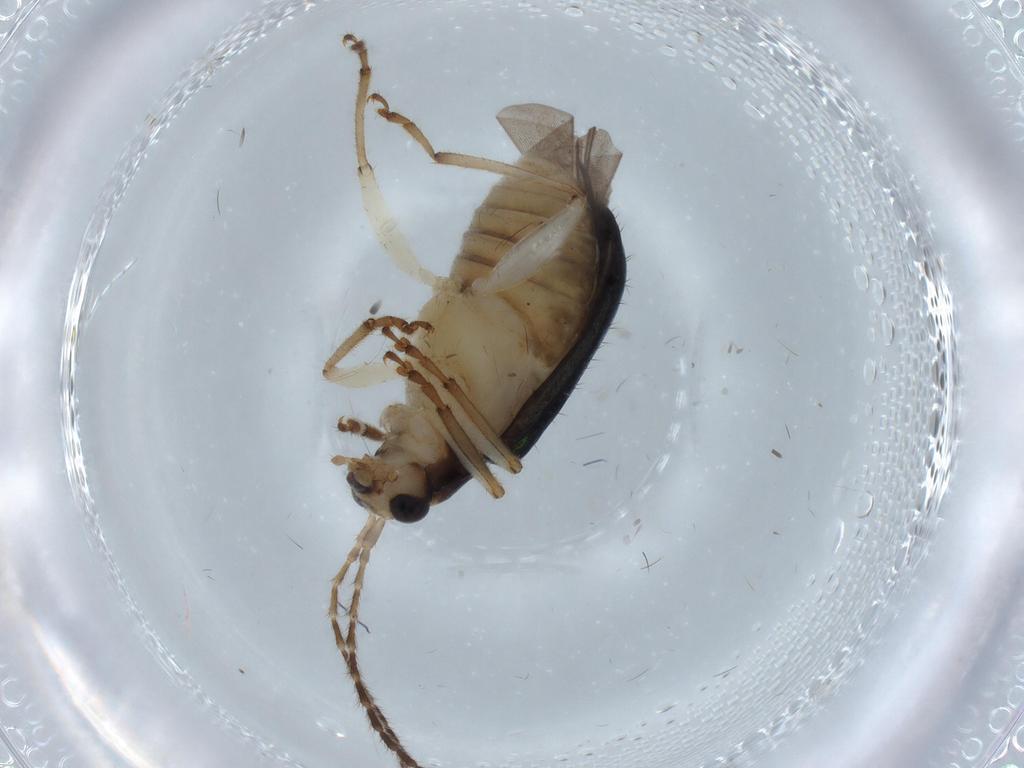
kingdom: Animalia
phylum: Arthropoda
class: Insecta
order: Coleoptera
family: Chrysomelidae
